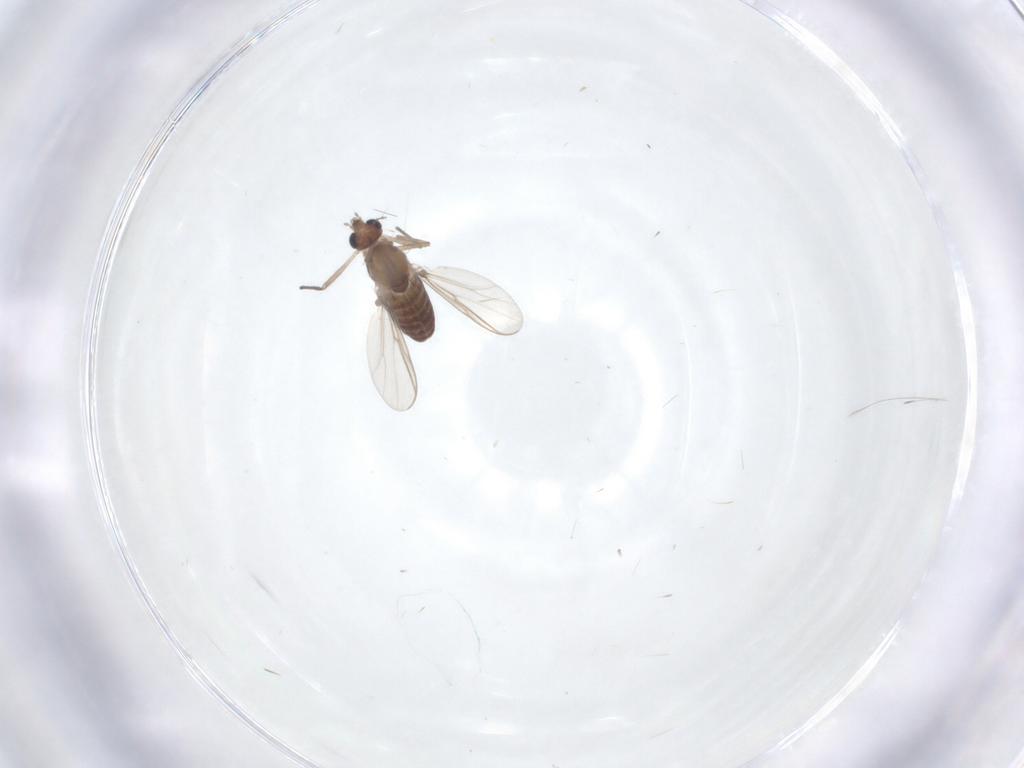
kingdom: Animalia
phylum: Arthropoda
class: Insecta
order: Diptera
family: Chironomidae
